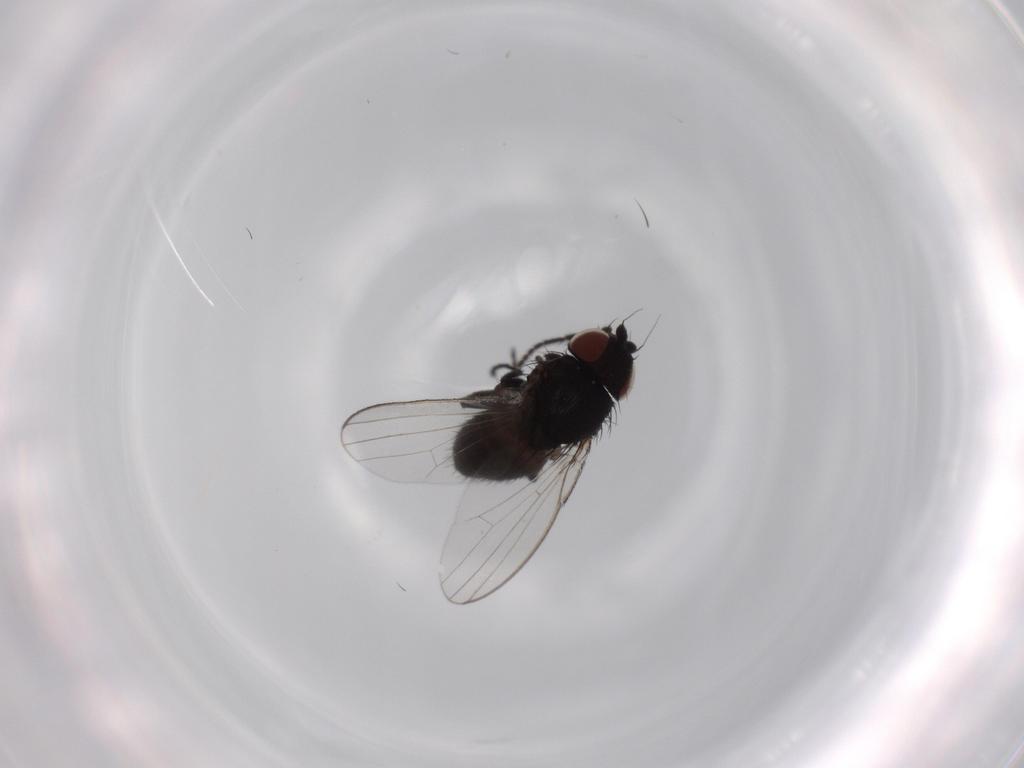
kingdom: Animalia
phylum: Arthropoda
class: Insecta
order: Diptera
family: Milichiidae
